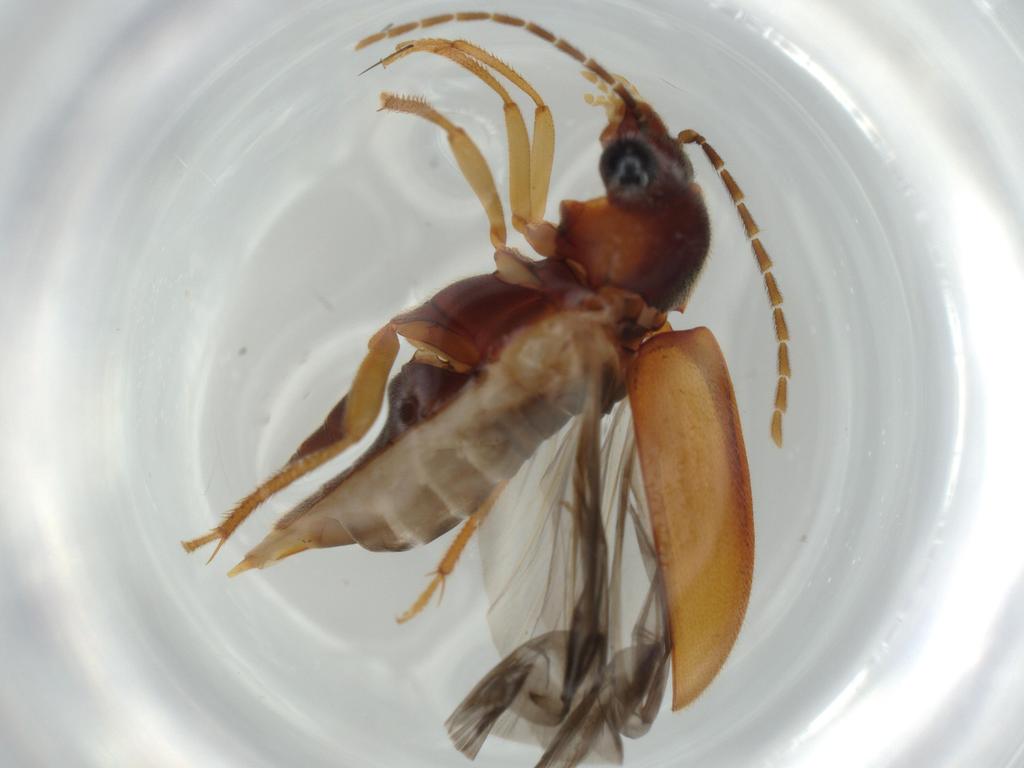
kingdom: Animalia
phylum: Arthropoda
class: Insecta
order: Coleoptera
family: Ptilodactylidae
